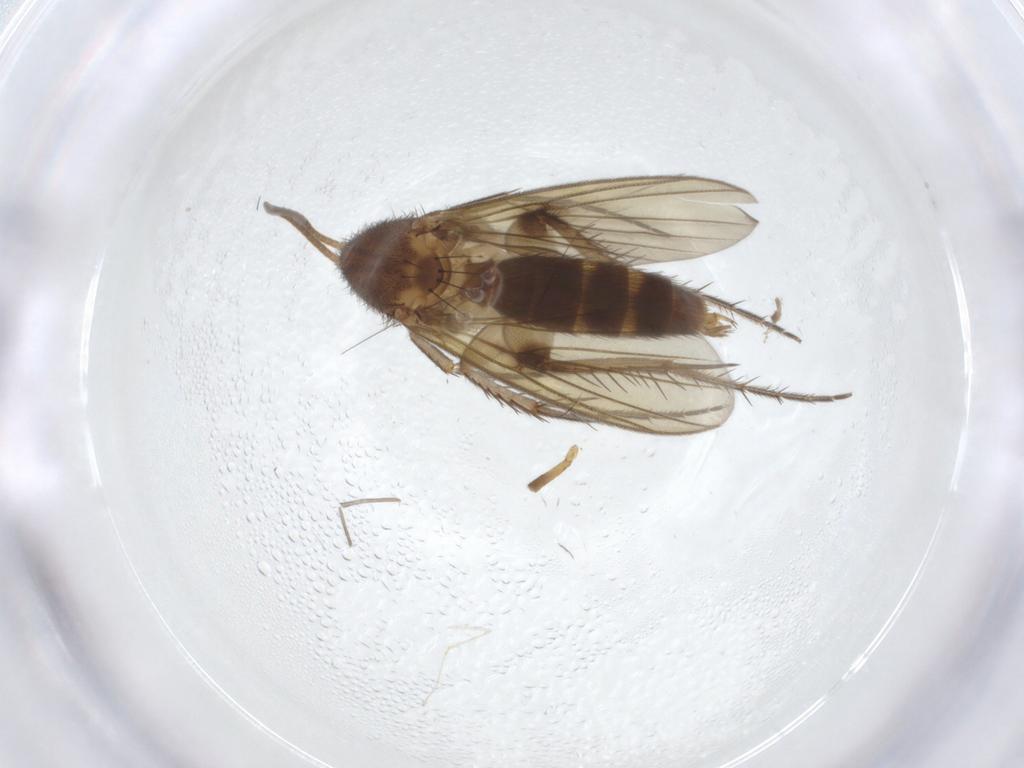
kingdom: Animalia
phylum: Arthropoda
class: Insecta
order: Diptera
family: Mycetophilidae
